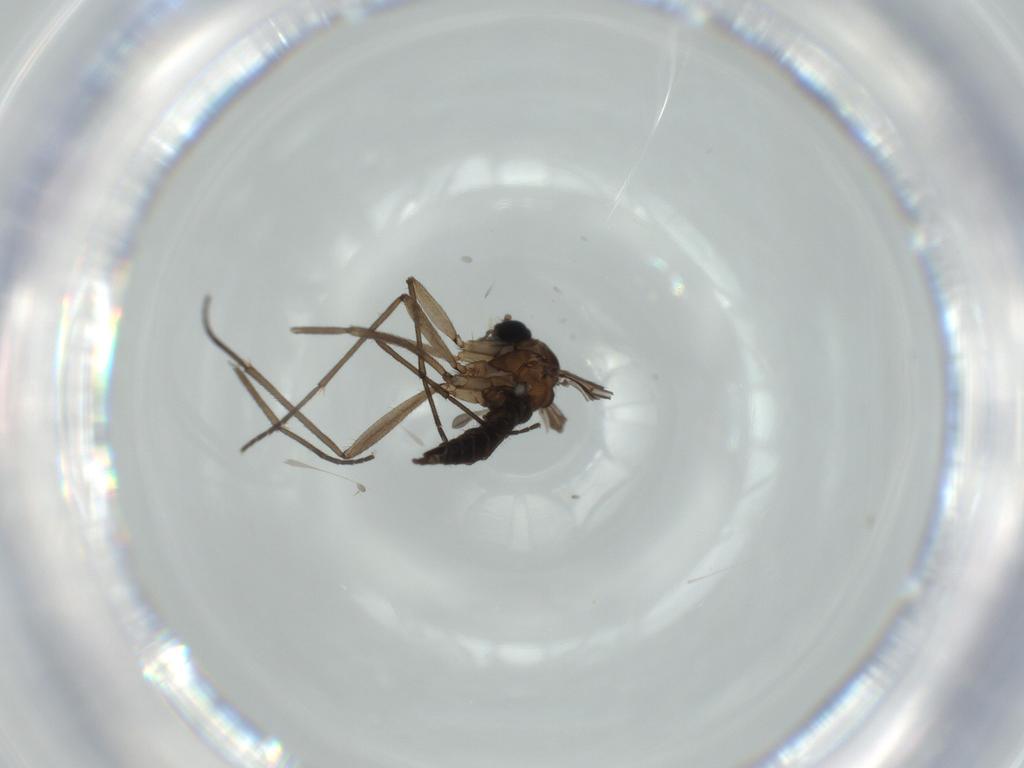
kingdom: Animalia
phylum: Arthropoda
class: Insecta
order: Diptera
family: Sciaridae
